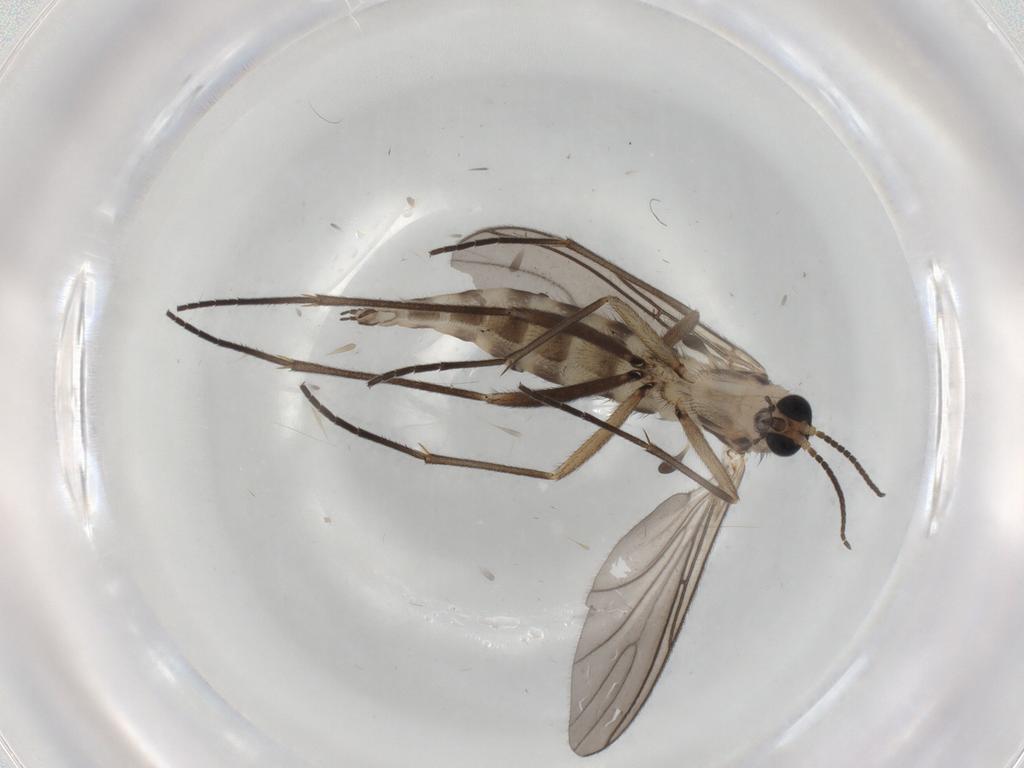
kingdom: Animalia
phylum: Arthropoda
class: Insecta
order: Diptera
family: Sciaridae
